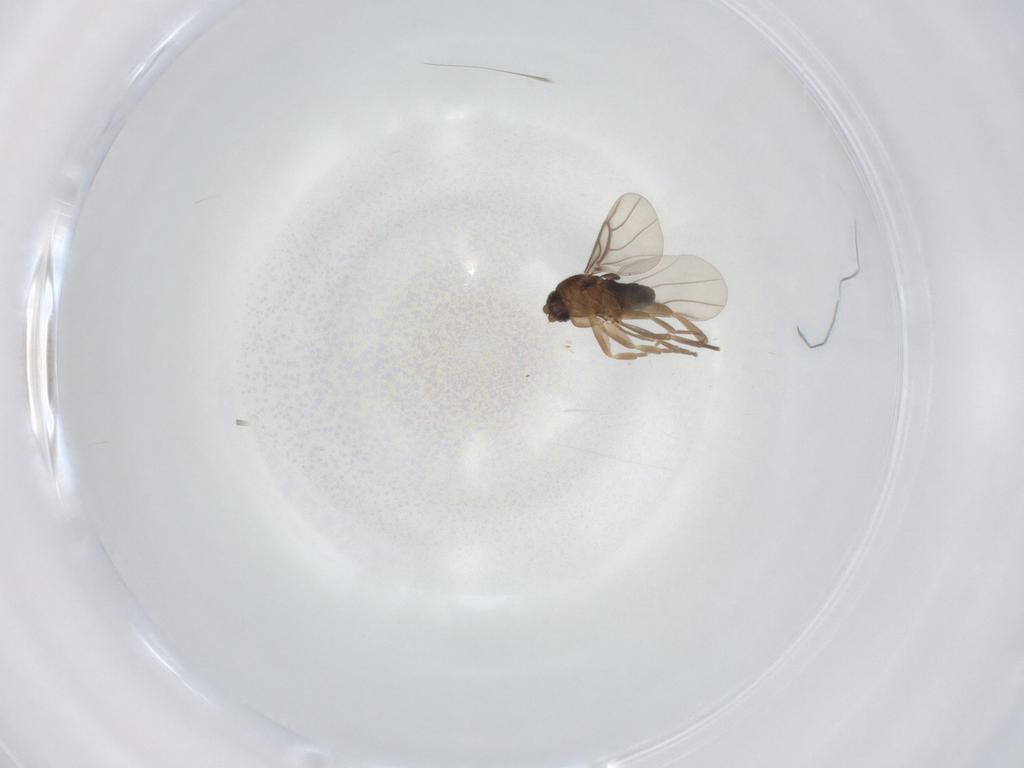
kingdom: Animalia
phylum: Arthropoda
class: Insecta
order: Diptera
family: Phoridae
